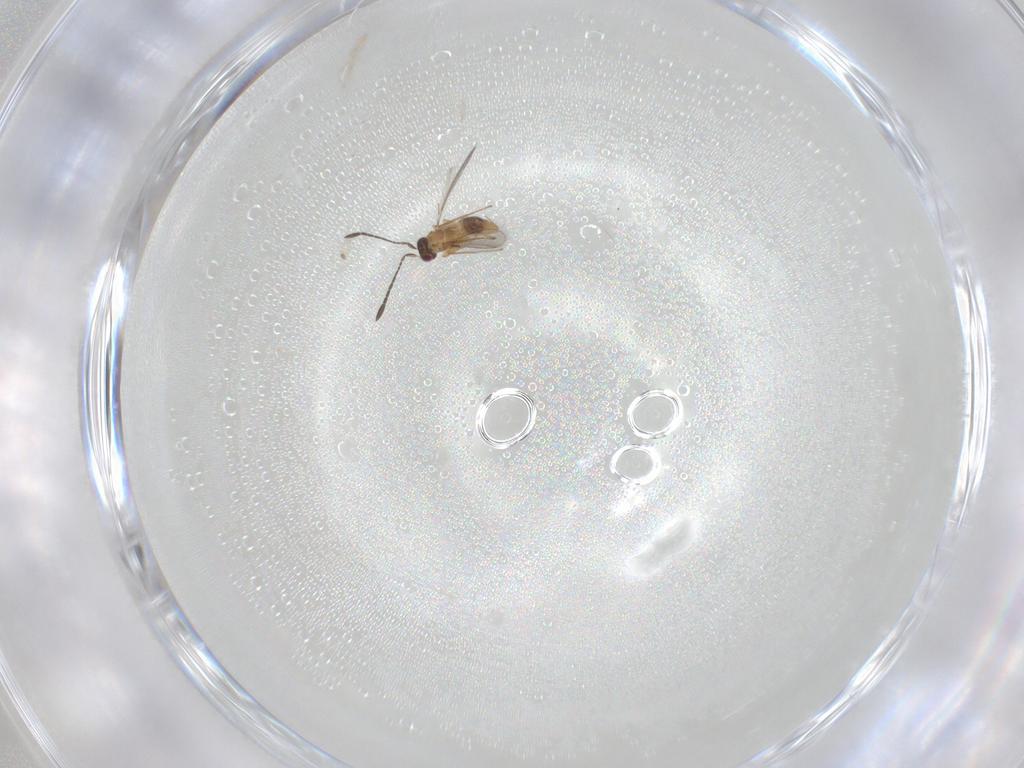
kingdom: Animalia
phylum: Arthropoda
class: Insecta
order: Hymenoptera
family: Mymaridae
